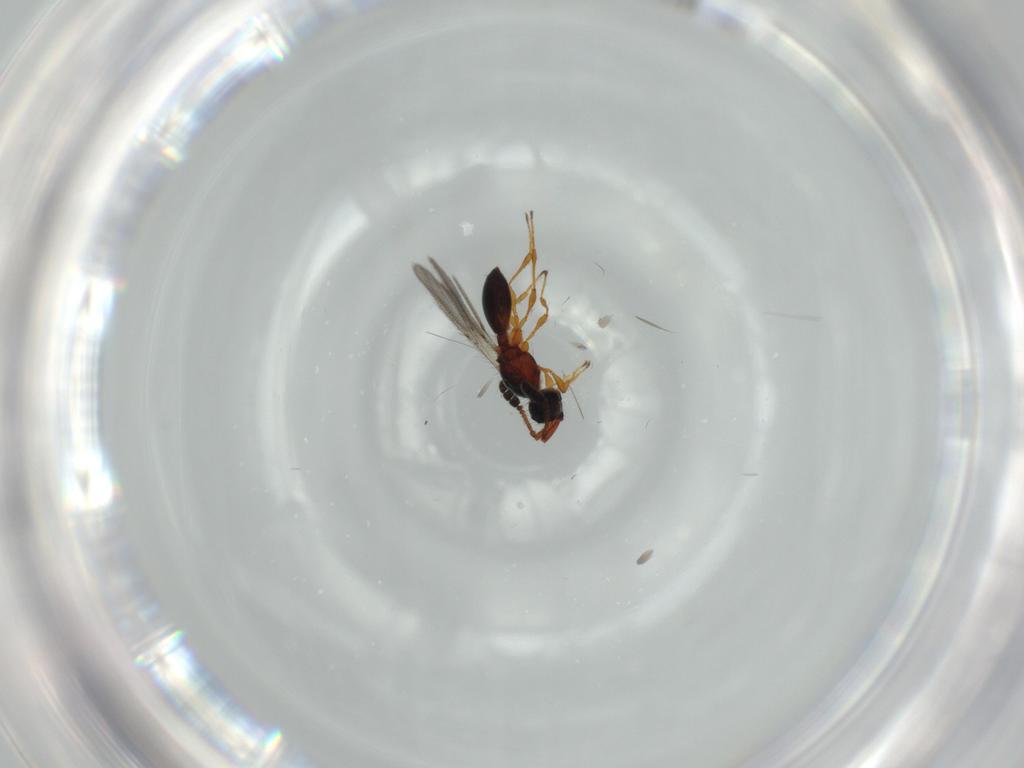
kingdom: Animalia
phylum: Arthropoda
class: Insecta
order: Hymenoptera
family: Diapriidae
